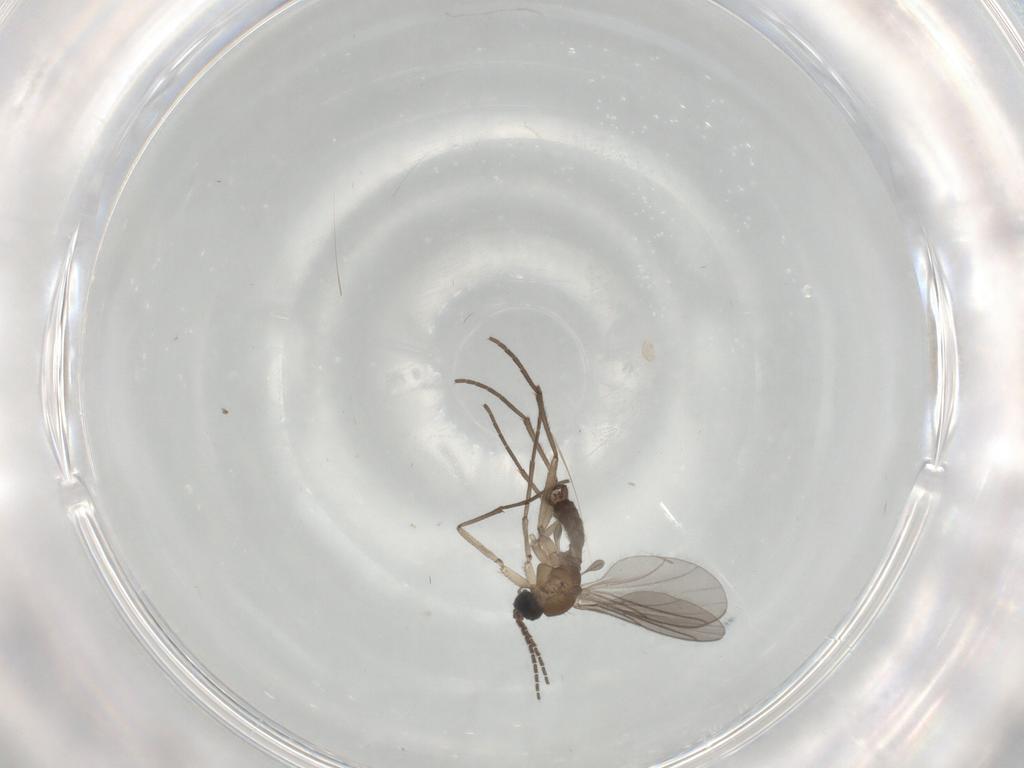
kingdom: Animalia
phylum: Arthropoda
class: Insecta
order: Diptera
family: Sciaridae
